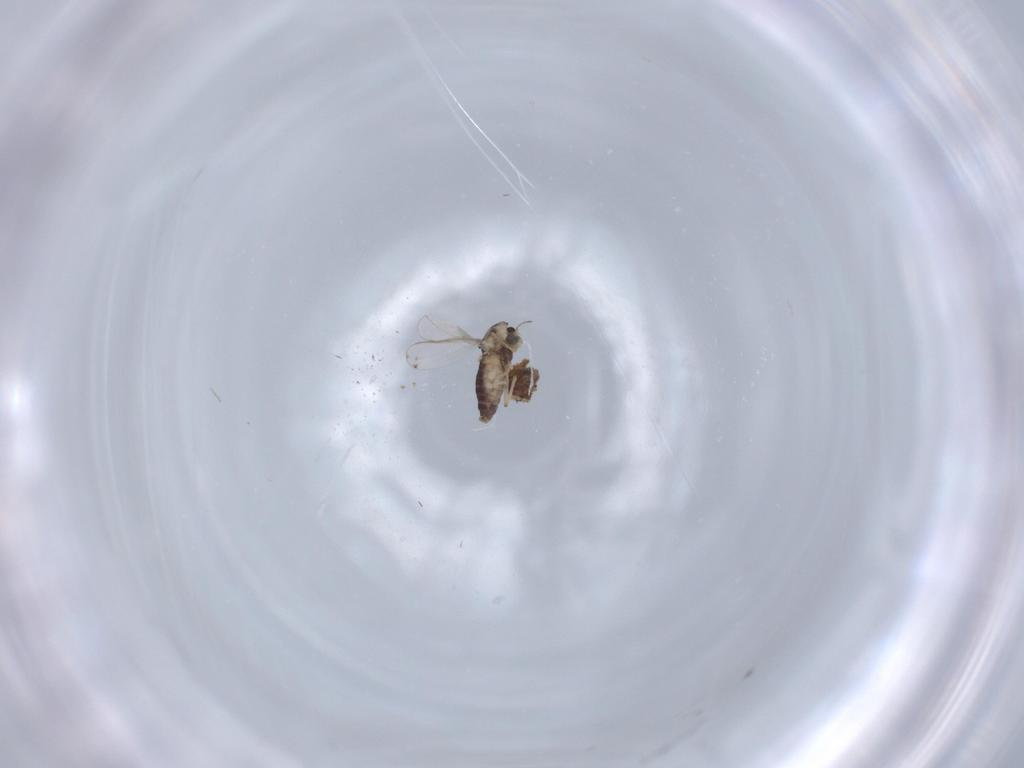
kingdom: Animalia
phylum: Arthropoda
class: Insecta
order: Diptera
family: Chironomidae
